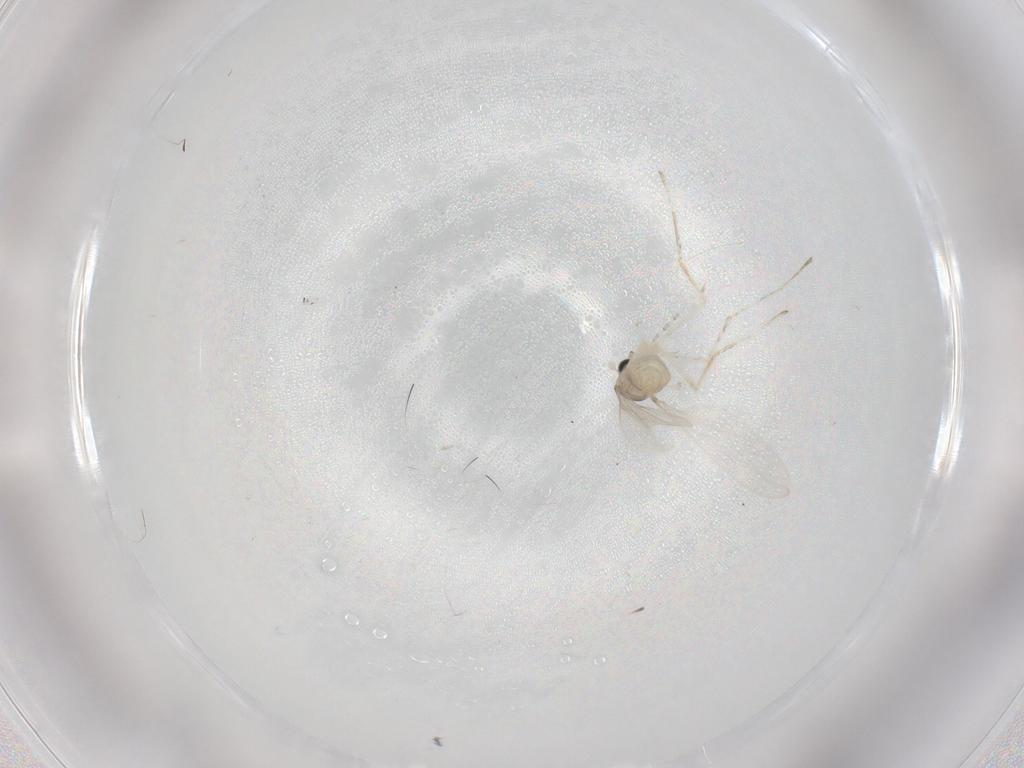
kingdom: Animalia
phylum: Arthropoda
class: Insecta
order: Diptera
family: Cecidomyiidae
